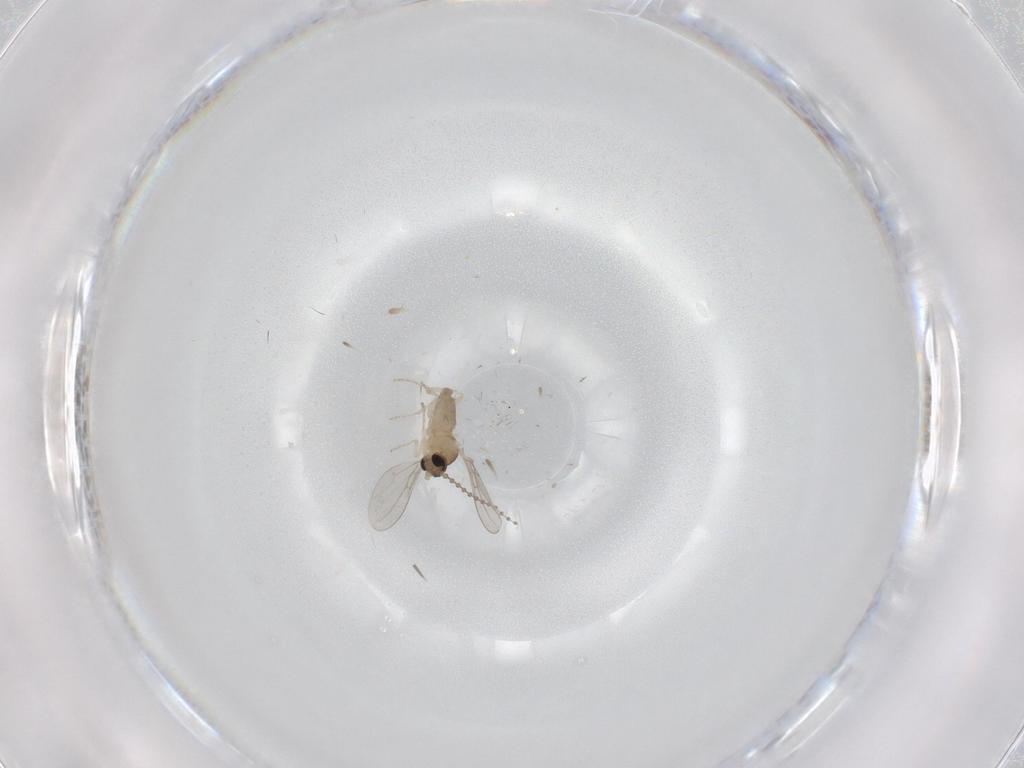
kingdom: Animalia
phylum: Arthropoda
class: Insecta
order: Diptera
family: Cecidomyiidae
